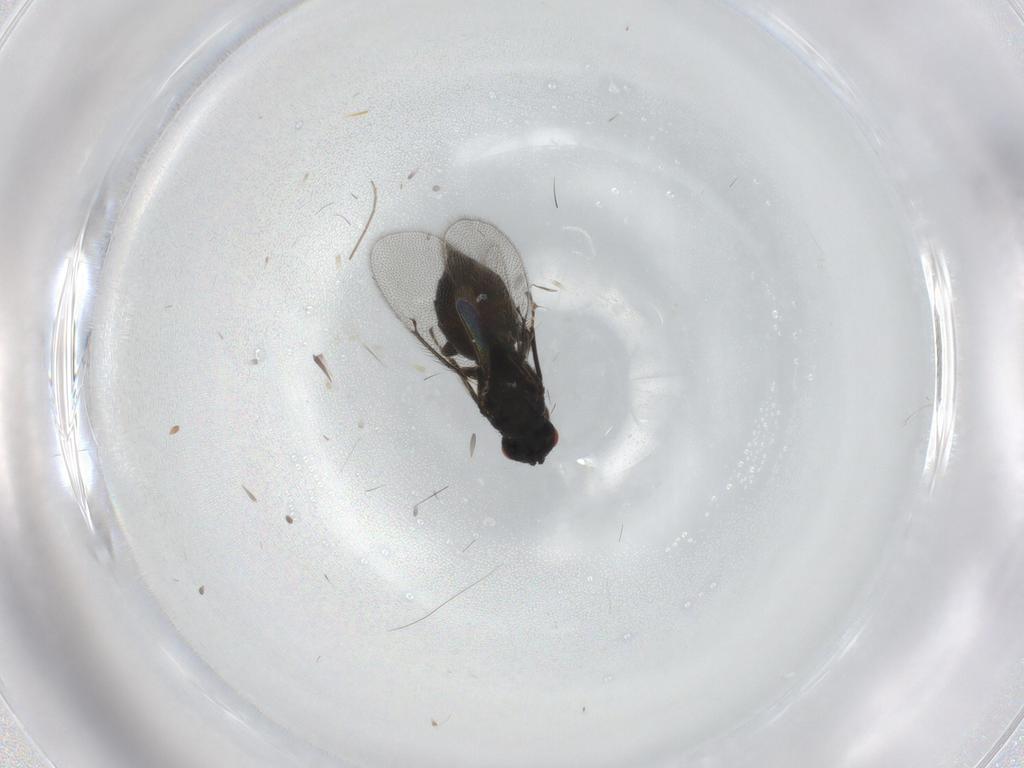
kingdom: Animalia
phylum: Arthropoda
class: Insecta
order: Hymenoptera
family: Eulophidae
